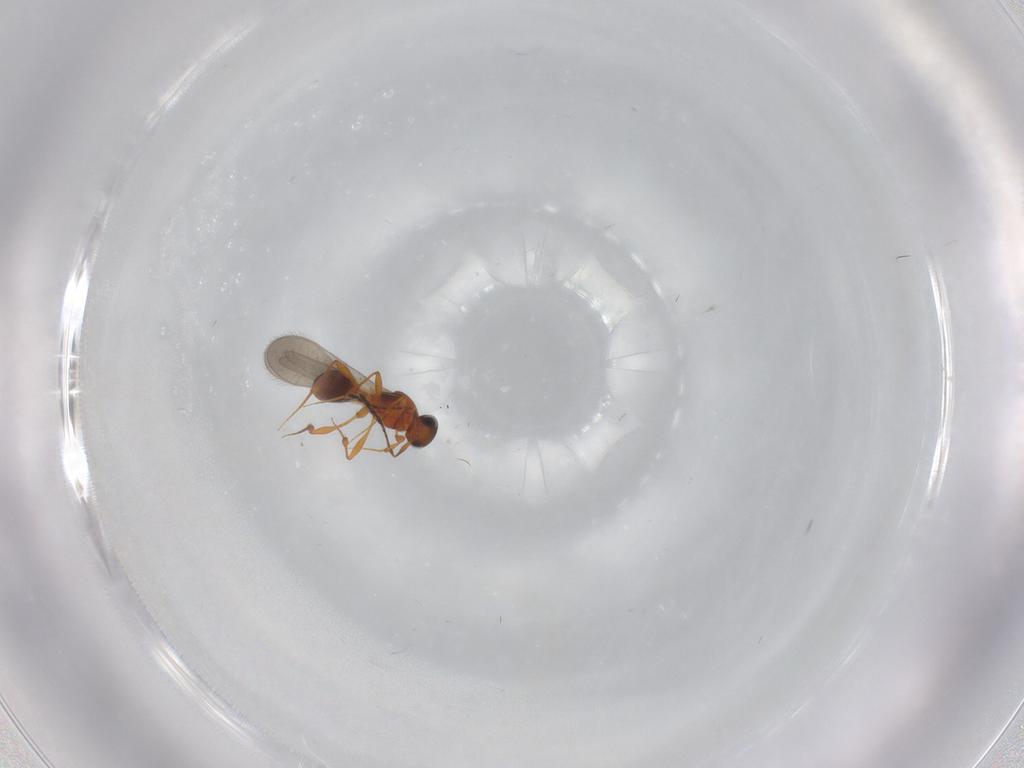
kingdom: Animalia
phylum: Arthropoda
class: Insecta
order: Hymenoptera
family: Platygastridae
